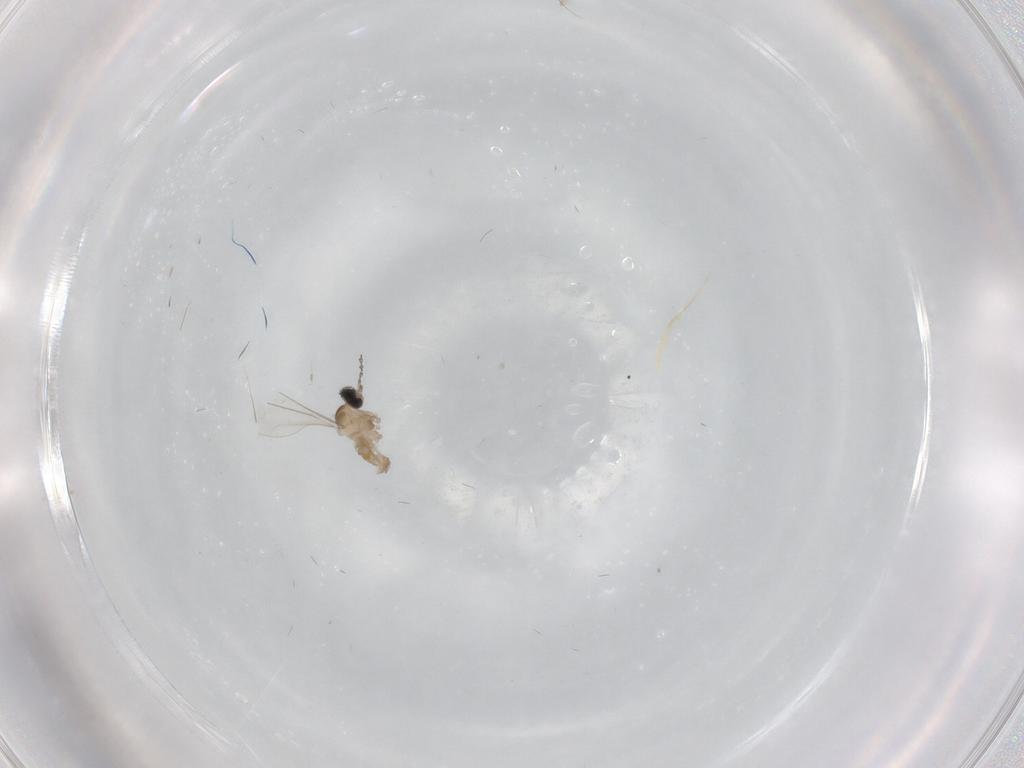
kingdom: Animalia
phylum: Arthropoda
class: Insecta
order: Diptera
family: Cecidomyiidae
